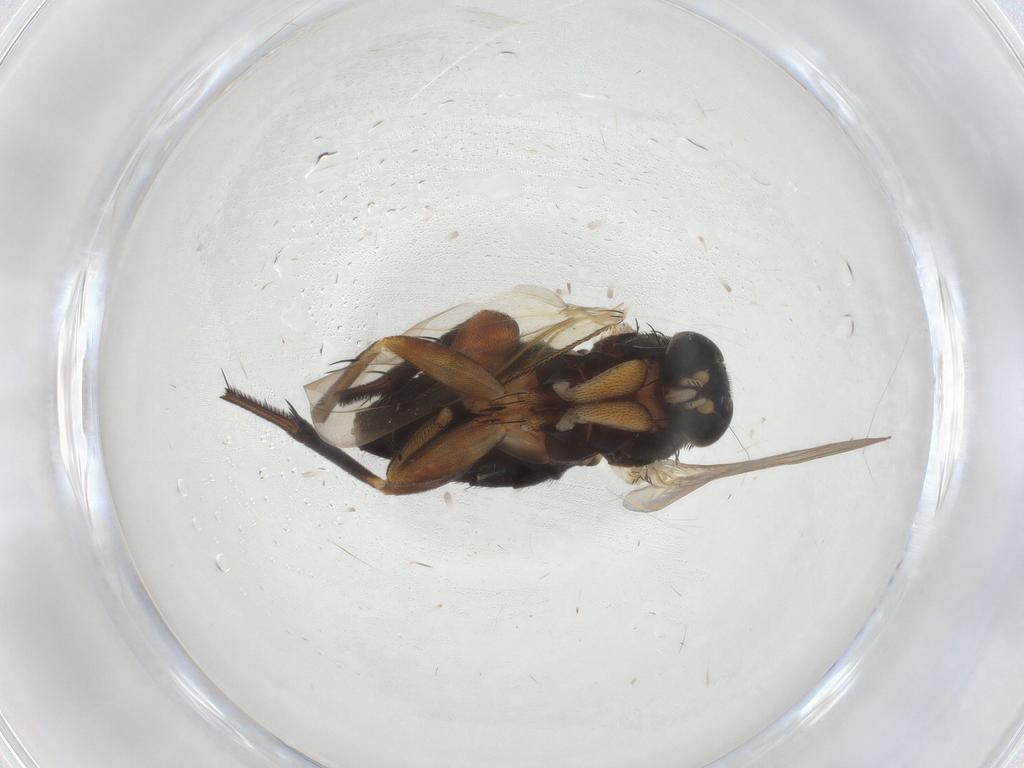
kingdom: Animalia
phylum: Arthropoda
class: Insecta
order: Diptera
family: Phoridae
